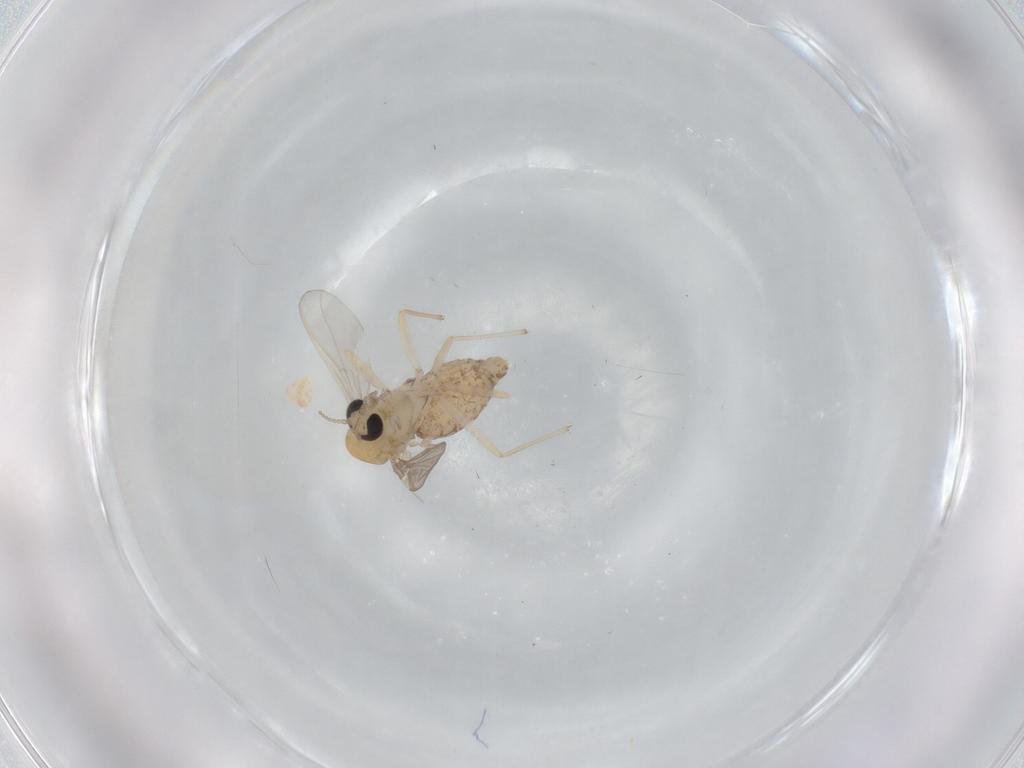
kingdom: Animalia
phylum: Arthropoda
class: Insecta
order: Diptera
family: Chironomidae
